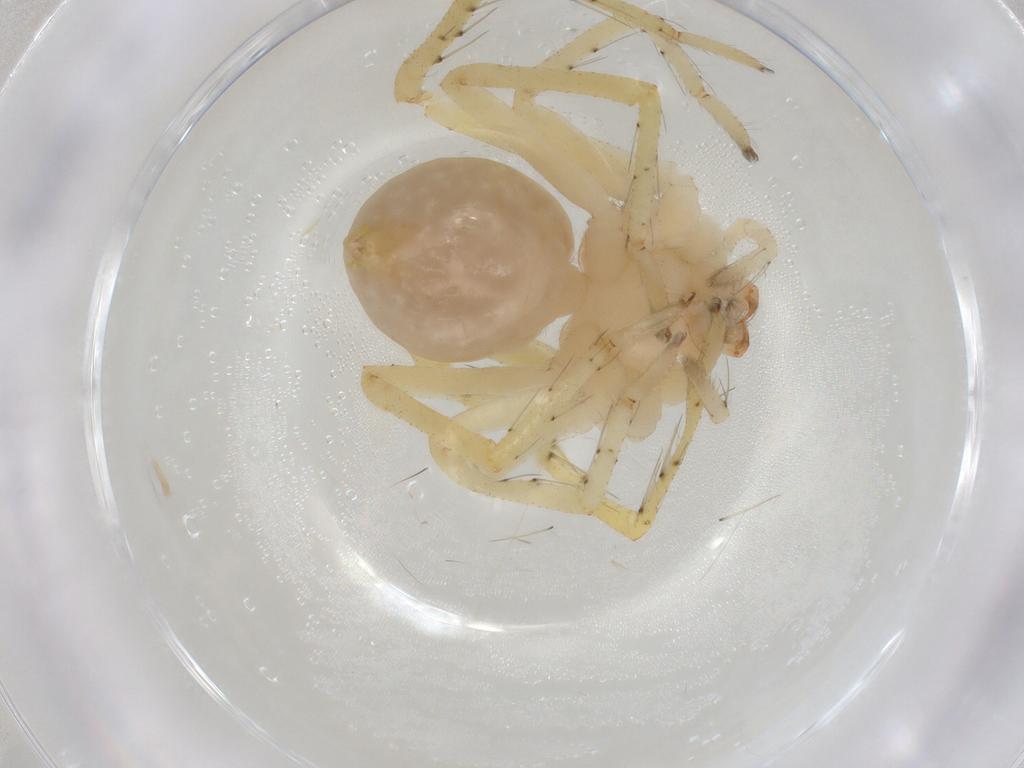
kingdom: Animalia
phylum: Arthropoda
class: Arachnida
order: Araneae
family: Sparassidae
